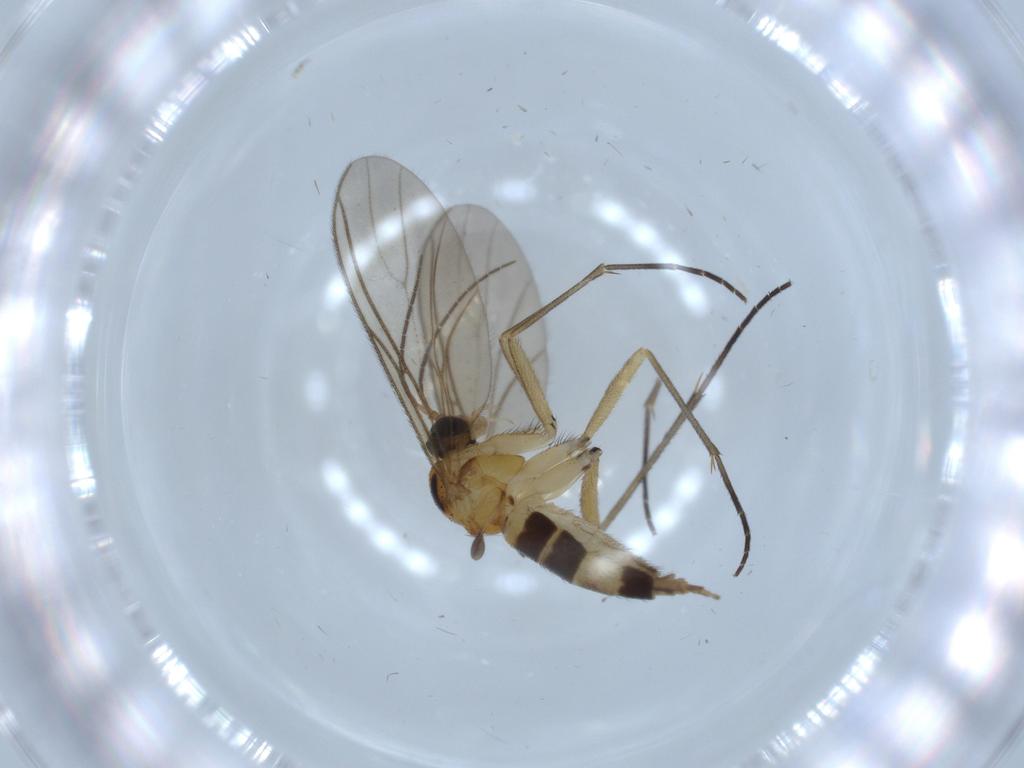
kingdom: Animalia
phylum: Arthropoda
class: Insecta
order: Diptera
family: Sciaridae
